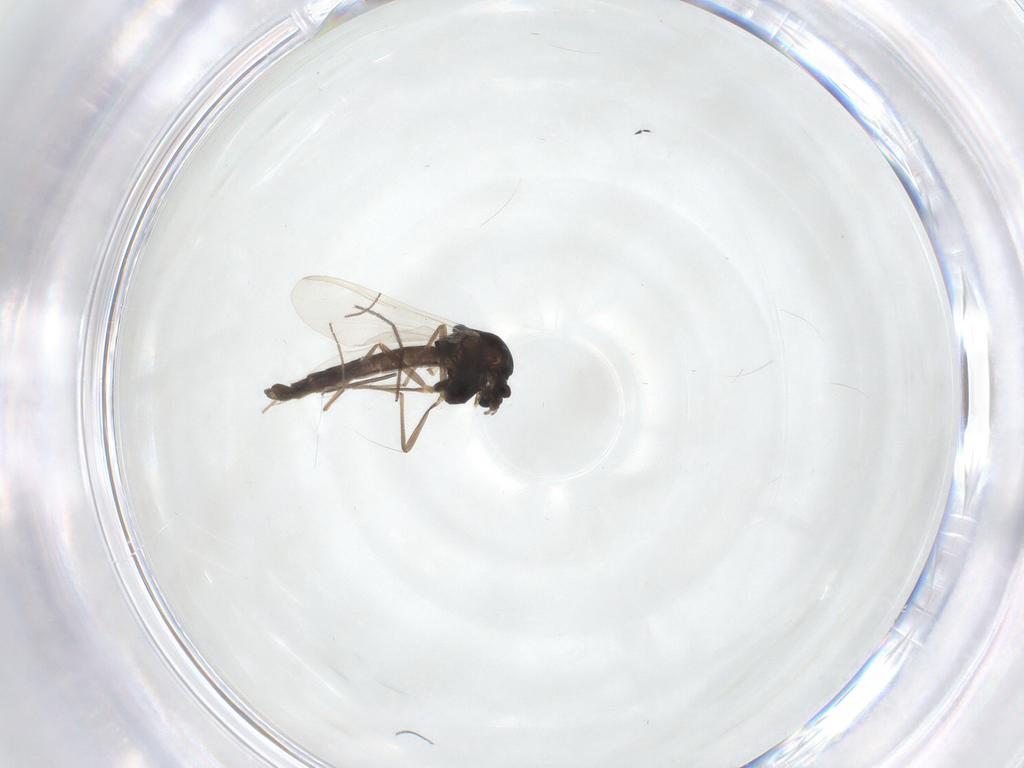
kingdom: Animalia
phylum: Arthropoda
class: Insecta
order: Diptera
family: Chironomidae
